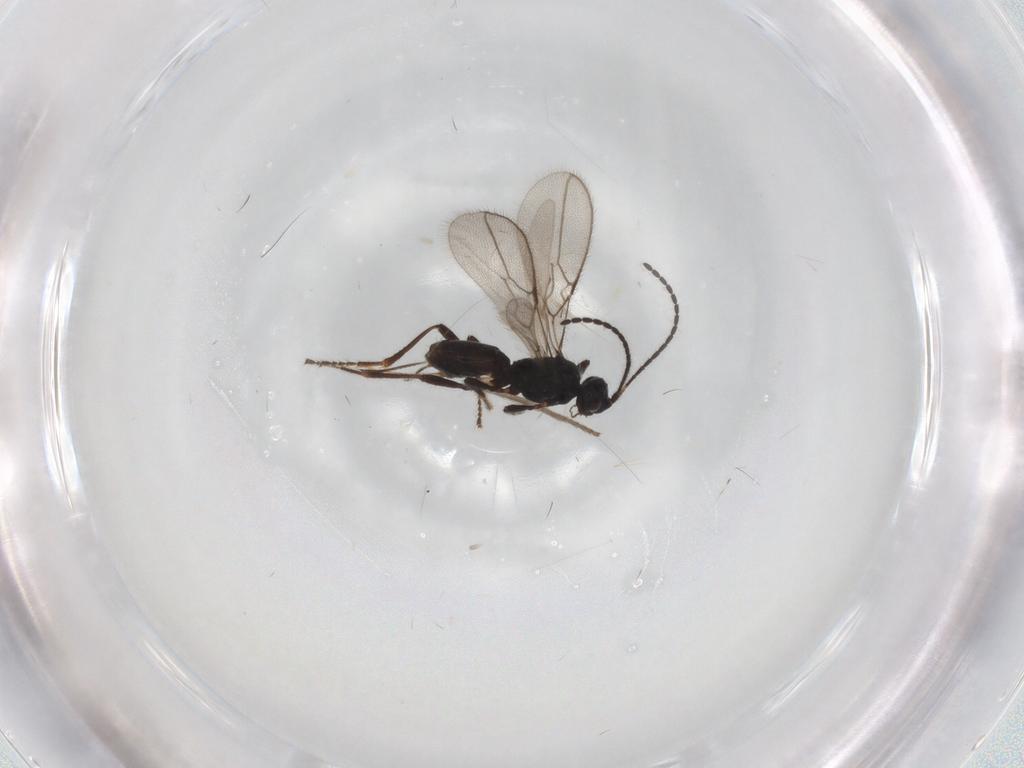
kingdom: Animalia
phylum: Arthropoda
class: Insecta
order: Hymenoptera
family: Braconidae
